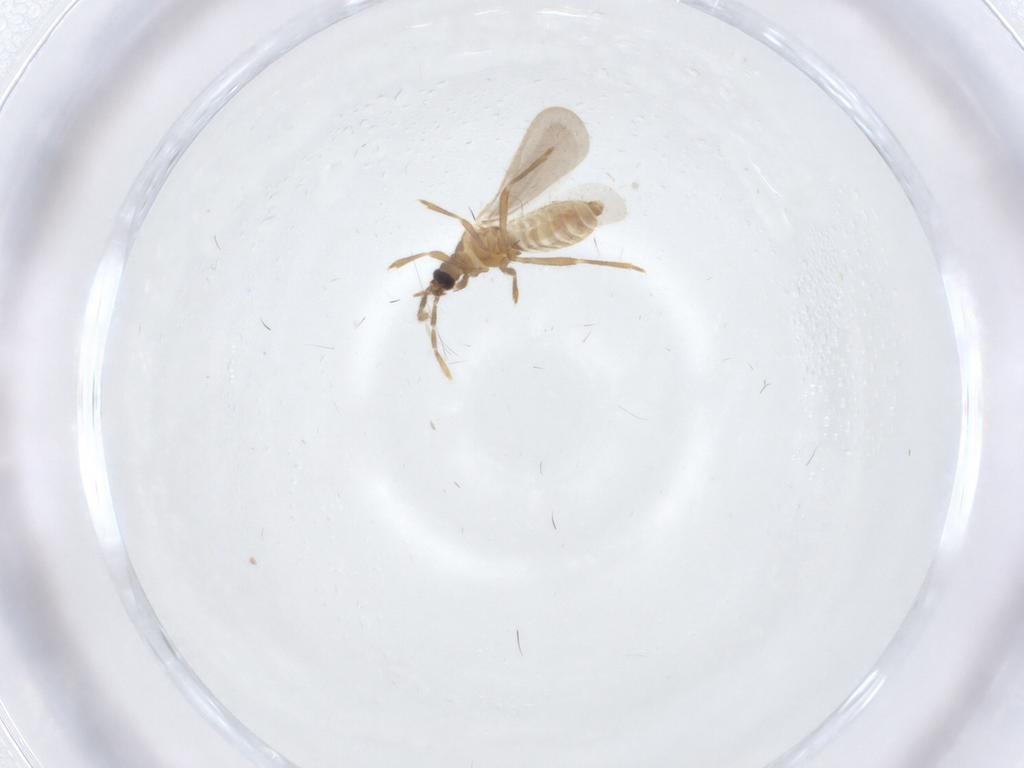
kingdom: Animalia
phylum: Arthropoda
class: Insecta
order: Hemiptera
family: Enicocephalidae
